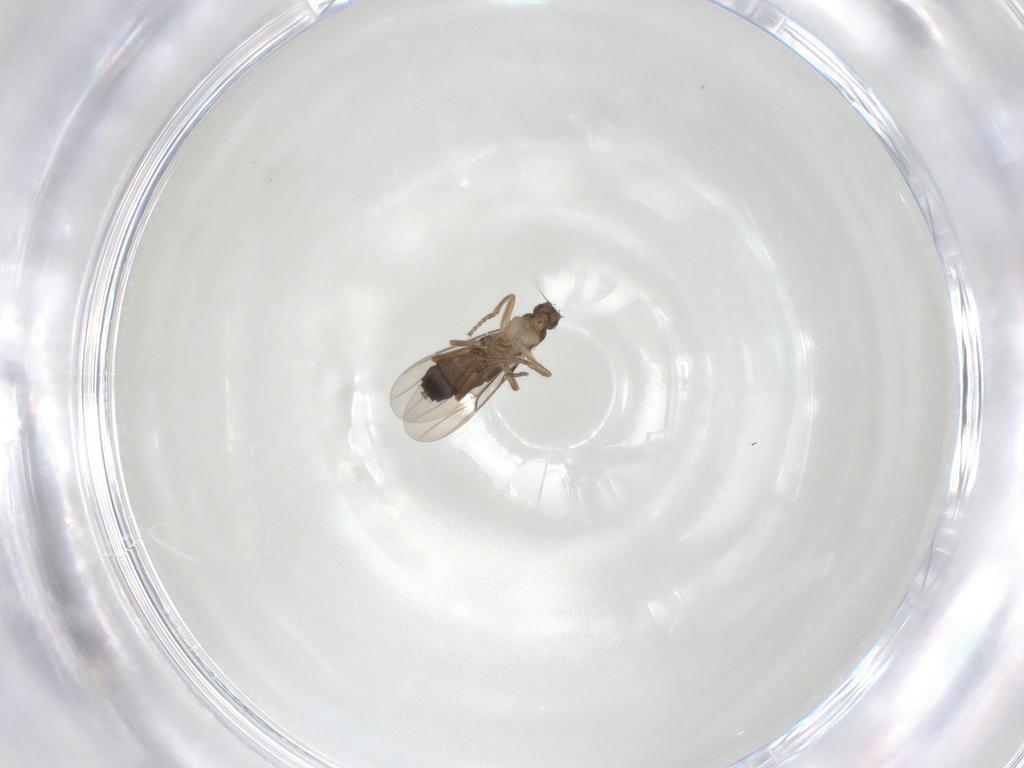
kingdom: Animalia
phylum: Arthropoda
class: Insecta
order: Diptera
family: Phoridae
